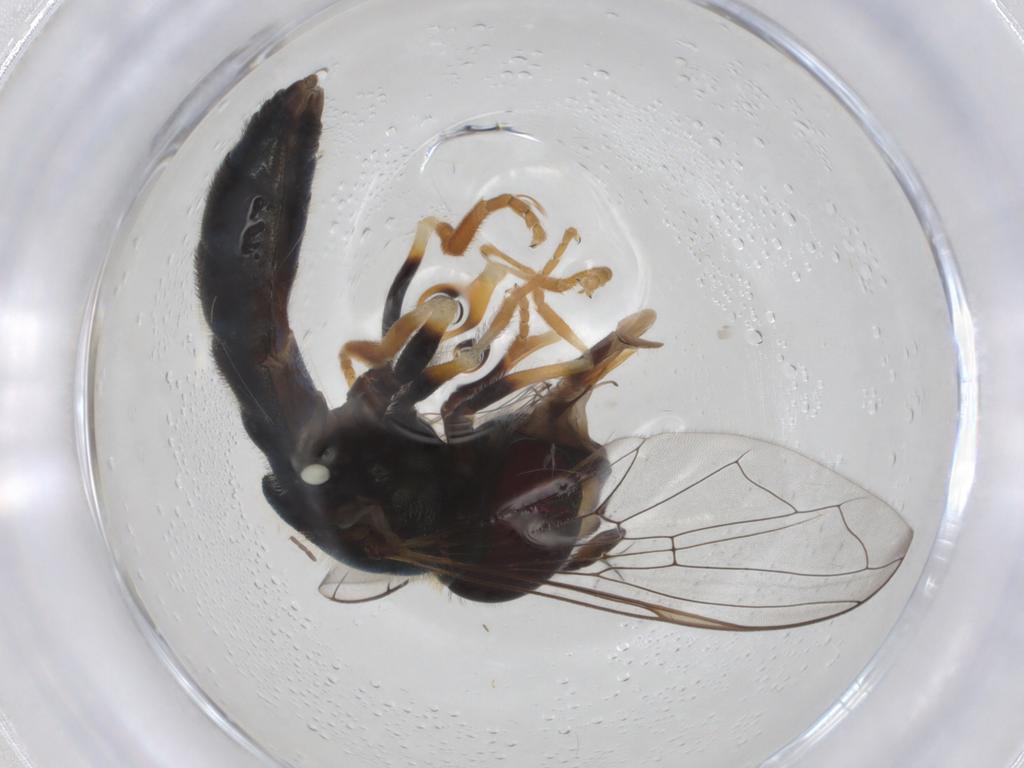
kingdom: Animalia
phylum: Arthropoda
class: Insecta
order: Diptera
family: Syrphidae
